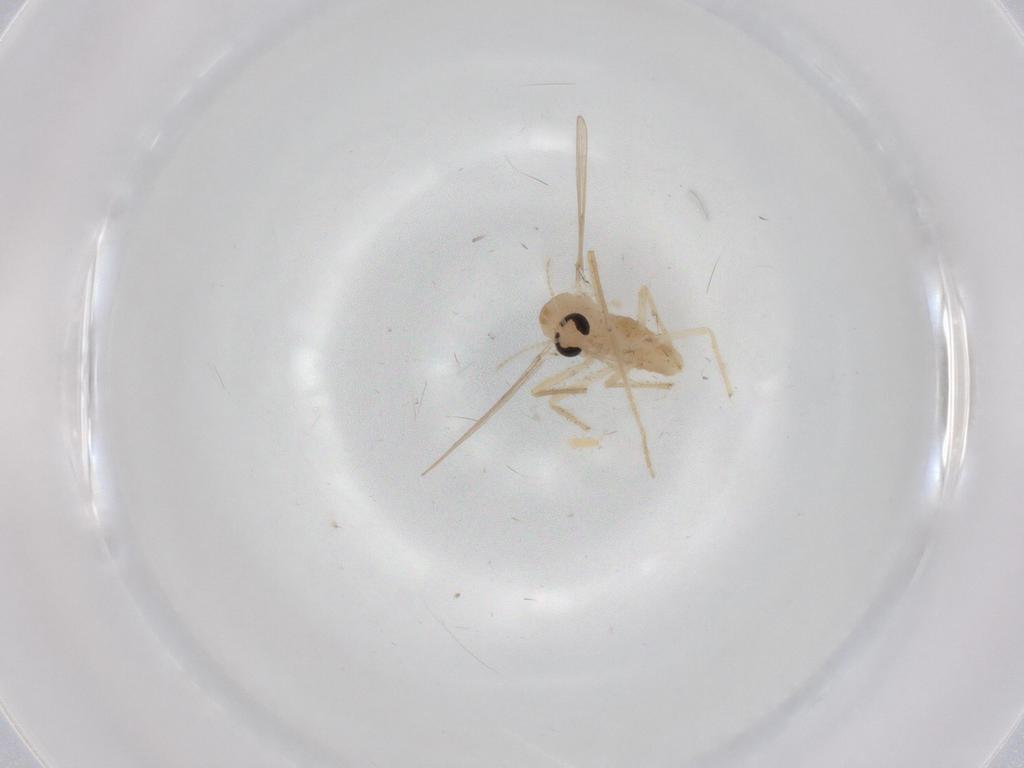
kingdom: Animalia
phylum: Arthropoda
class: Insecta
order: Diptera
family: Chironomidae
